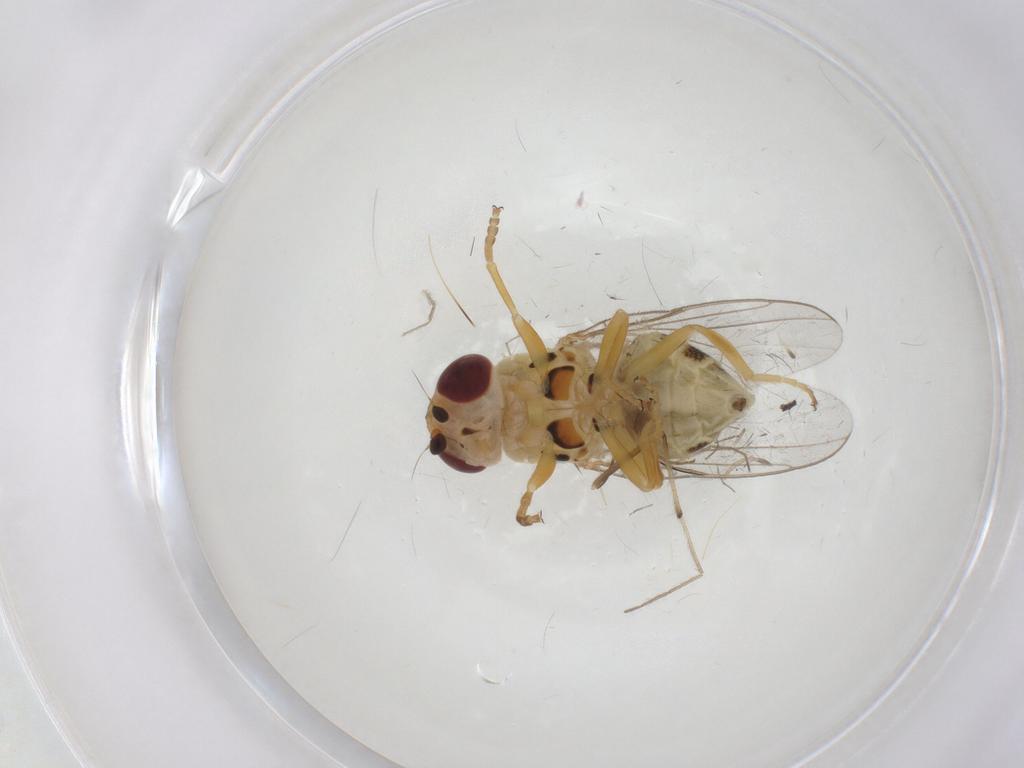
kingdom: Animalia
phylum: Arthropoda
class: Insecta
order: Diptera
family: Chloropidae
